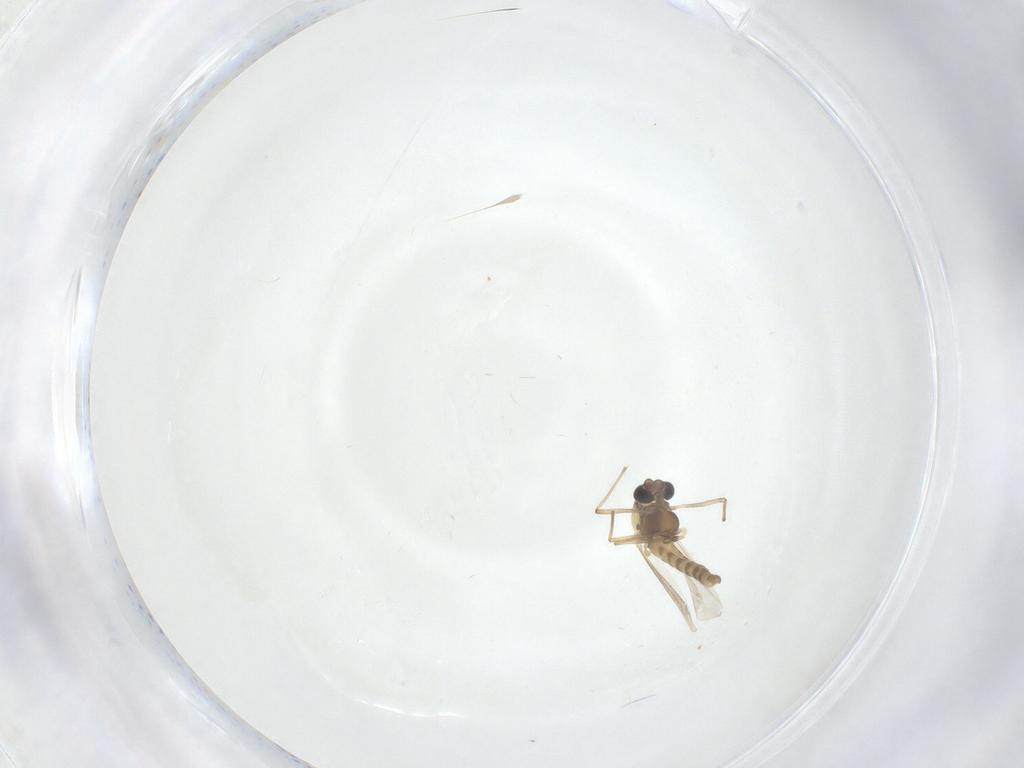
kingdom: Animalia
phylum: Arthropoda
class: Insecta
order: Diptera
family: Chironomidae
